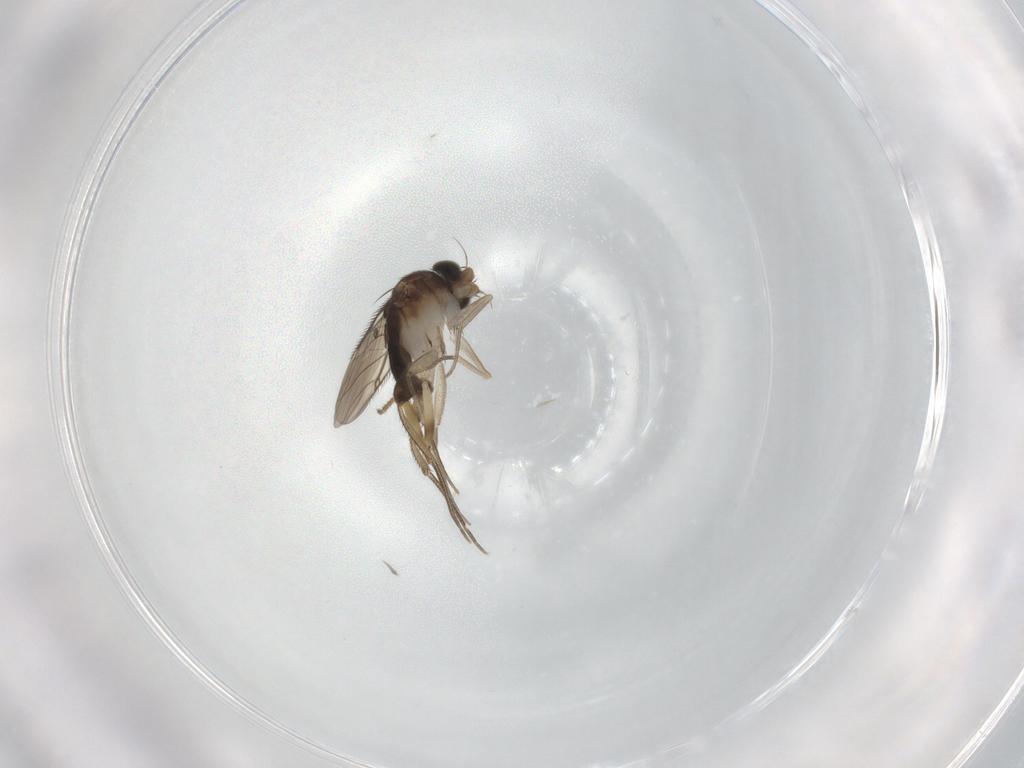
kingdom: Animalia
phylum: Arthropoda
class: Insecta
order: Diptera
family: Phoridae
